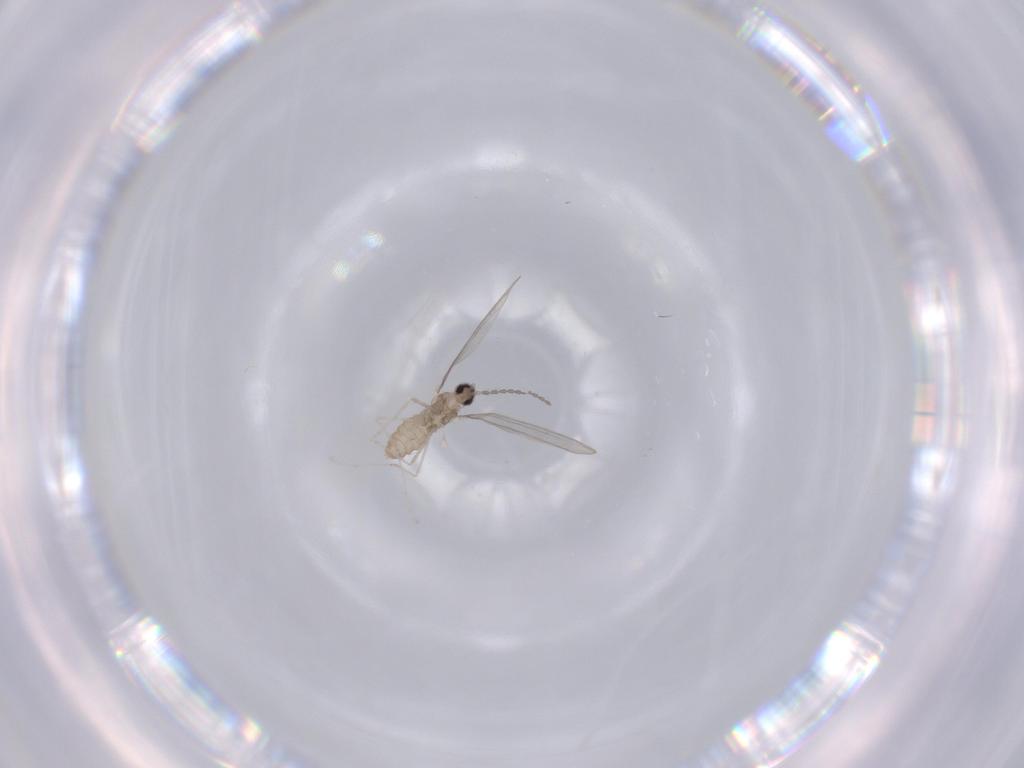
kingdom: Animalia
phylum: Arthropoda
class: Insecta
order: Diptera
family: Cecidomyiidae
